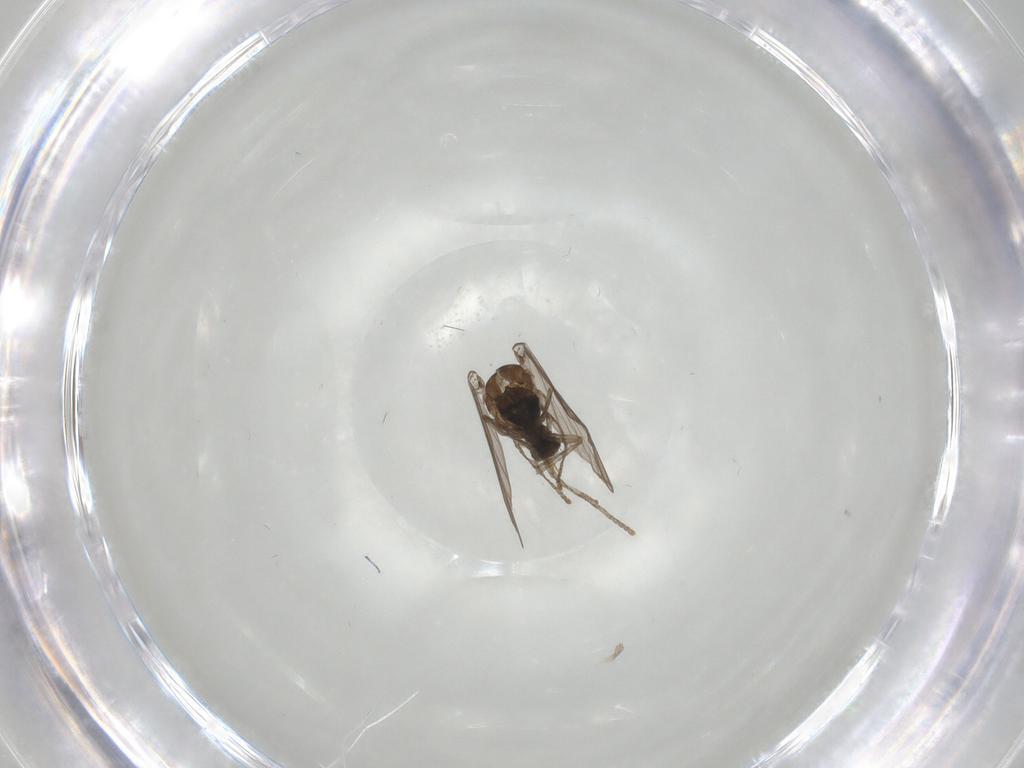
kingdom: Animalia
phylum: Arthropoda
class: Insecta
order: Diptera
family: Psychodidae
